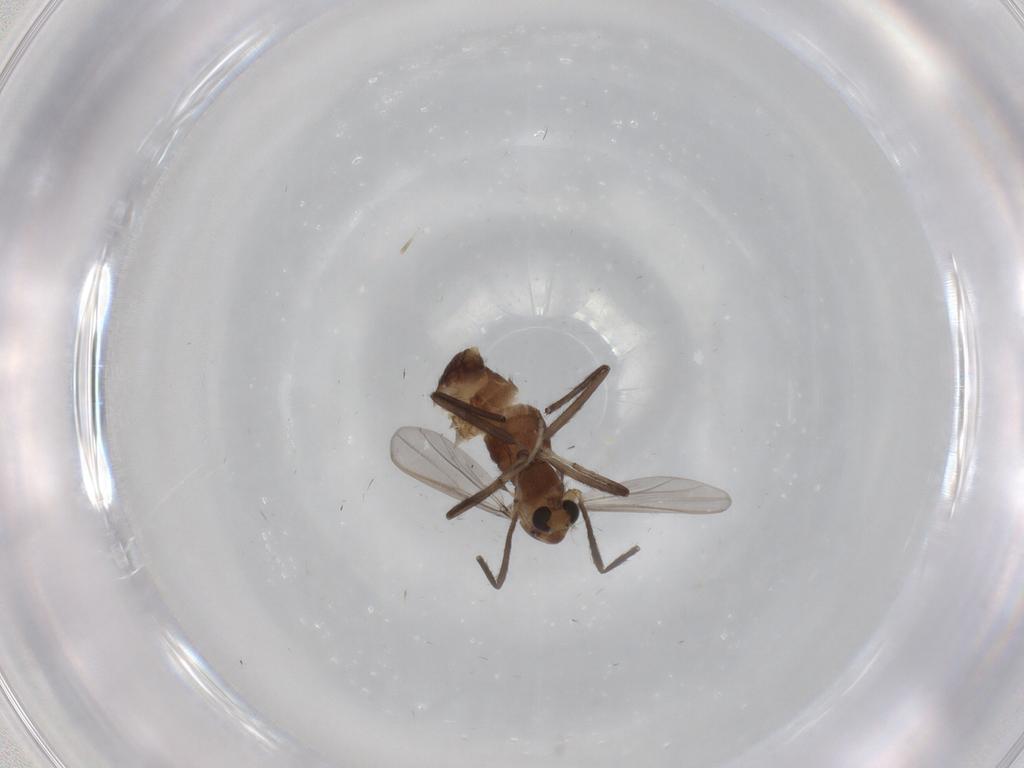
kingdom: Animalia
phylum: Arthropoda
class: Insecta
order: Diptera
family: Chironomidae
